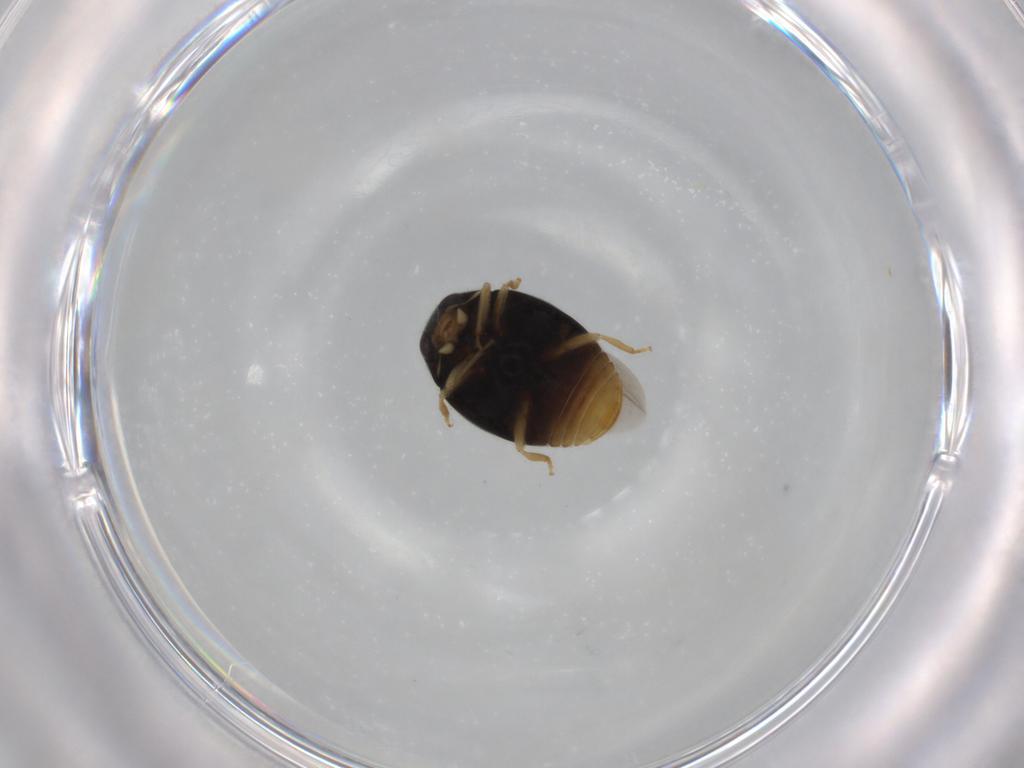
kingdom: Animalia
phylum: Arthropoda
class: Insecta
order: Coleoptera
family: Coccinellidae
